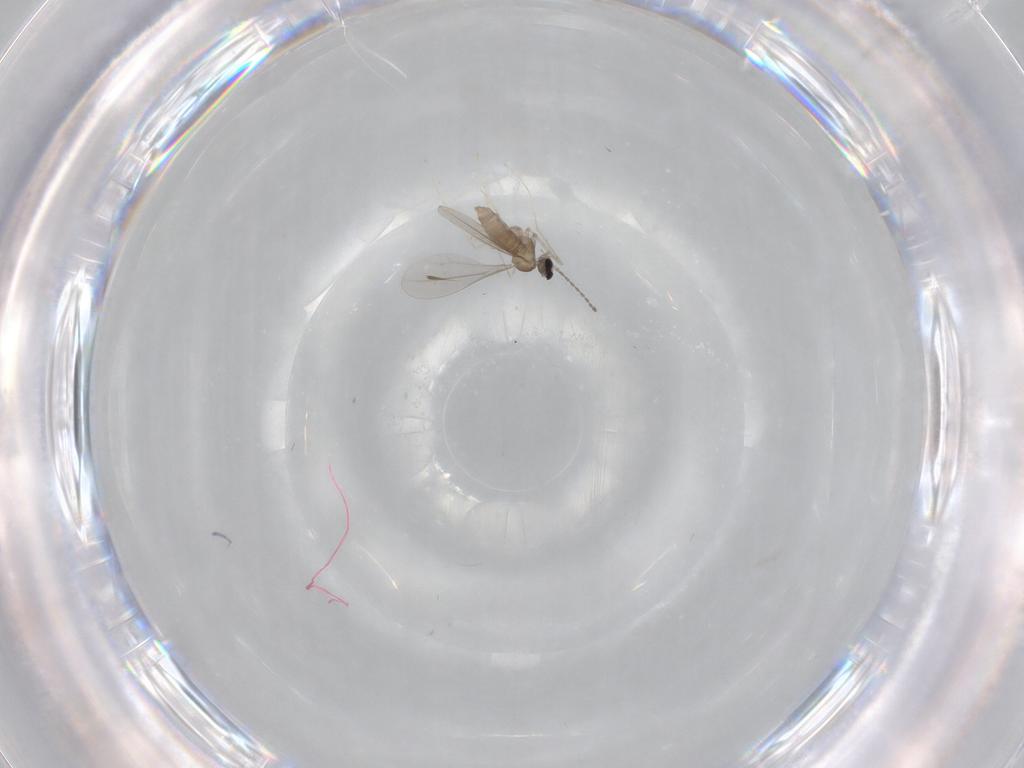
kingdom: Animalia
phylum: Arthropoda
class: Insecta
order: Diptera
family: Cecidomyiidae
